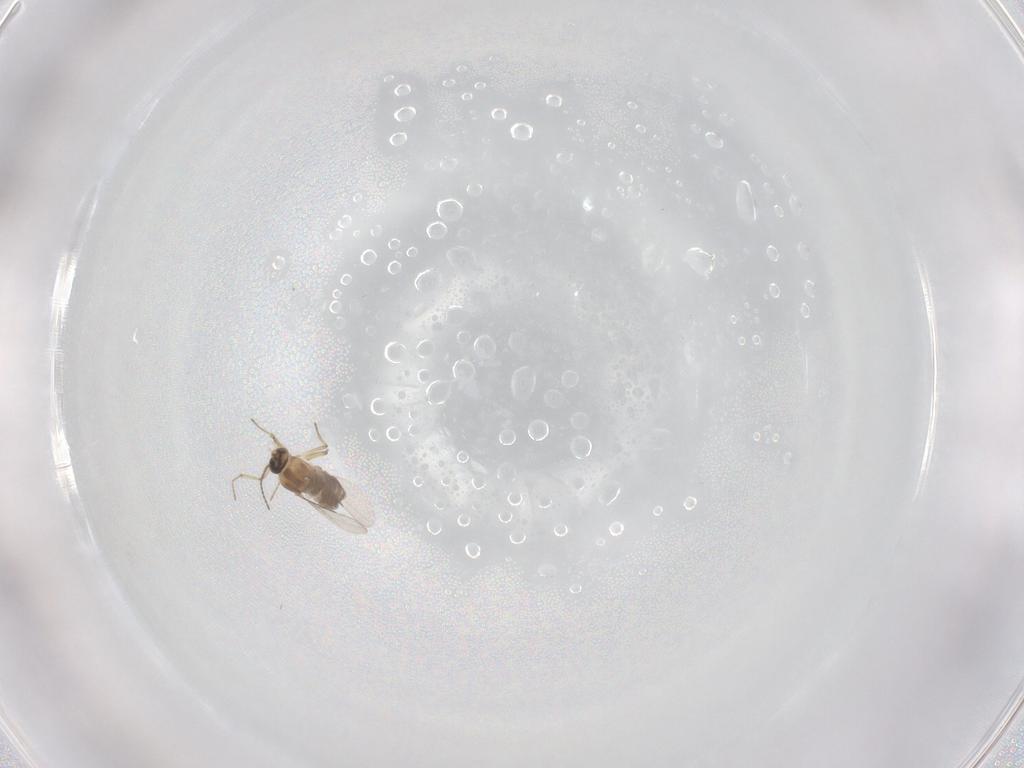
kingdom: Animalia
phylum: Arthropoda
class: Insecta
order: Diptera
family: Dolichopodidae
